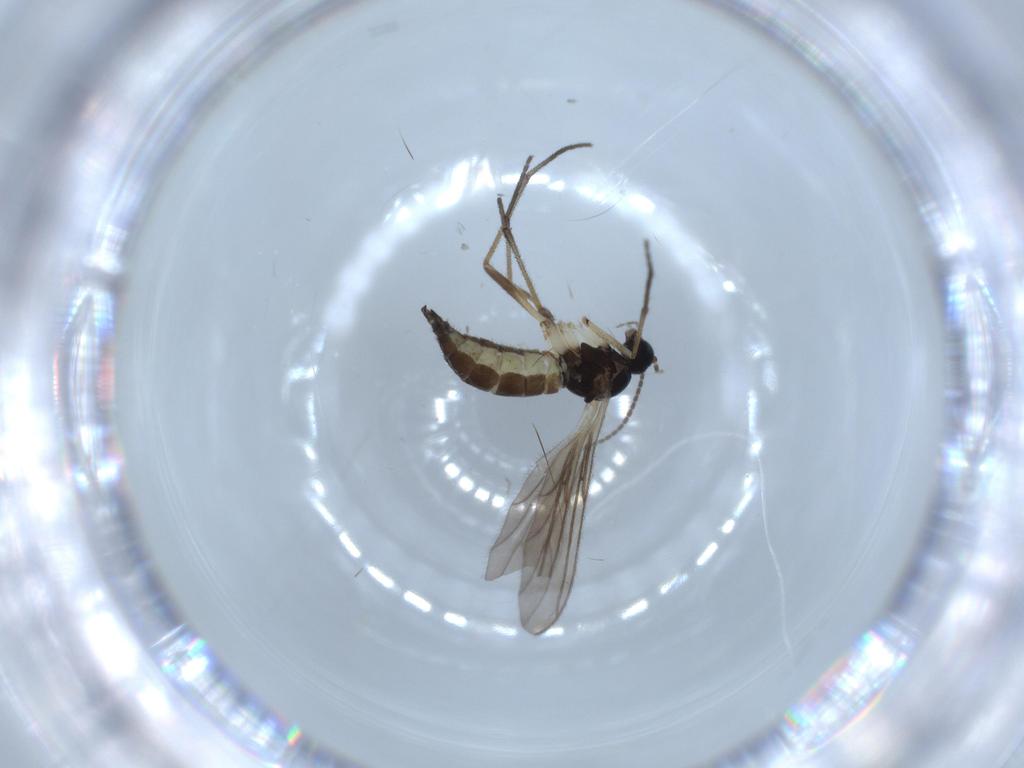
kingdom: Animalia
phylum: Arthropoda
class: Insecta
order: Diptera
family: Sciaridae
